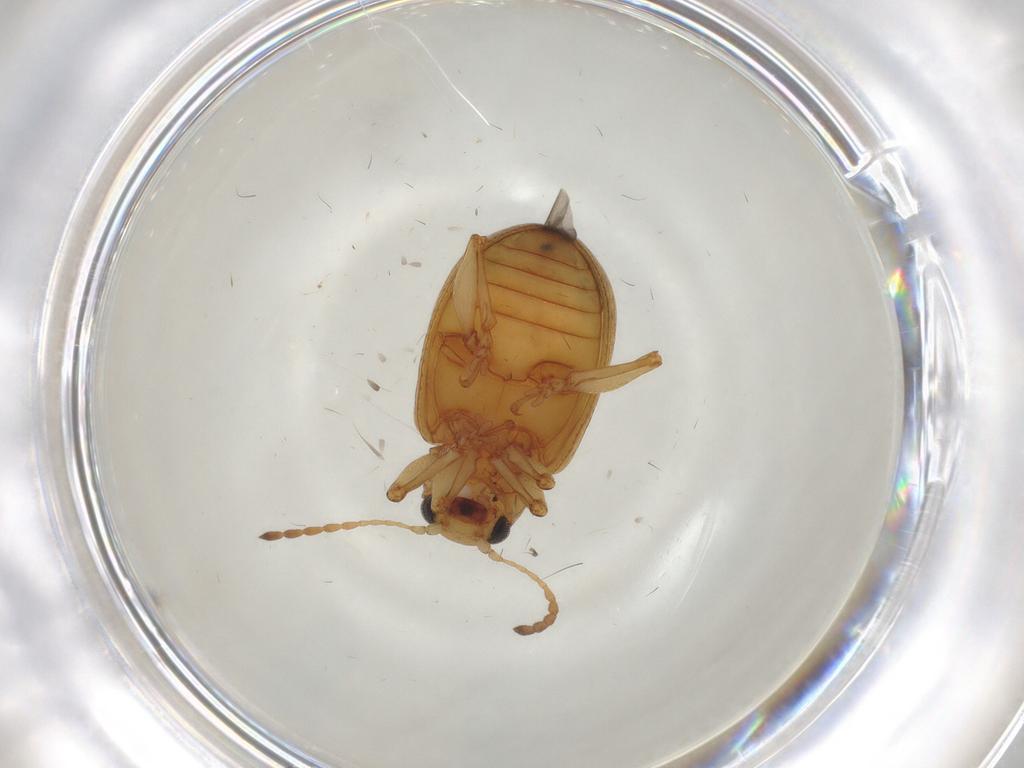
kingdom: Animalia
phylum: Arthropoda
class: Insecta
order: Coleoptera
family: Chrysomelidae
